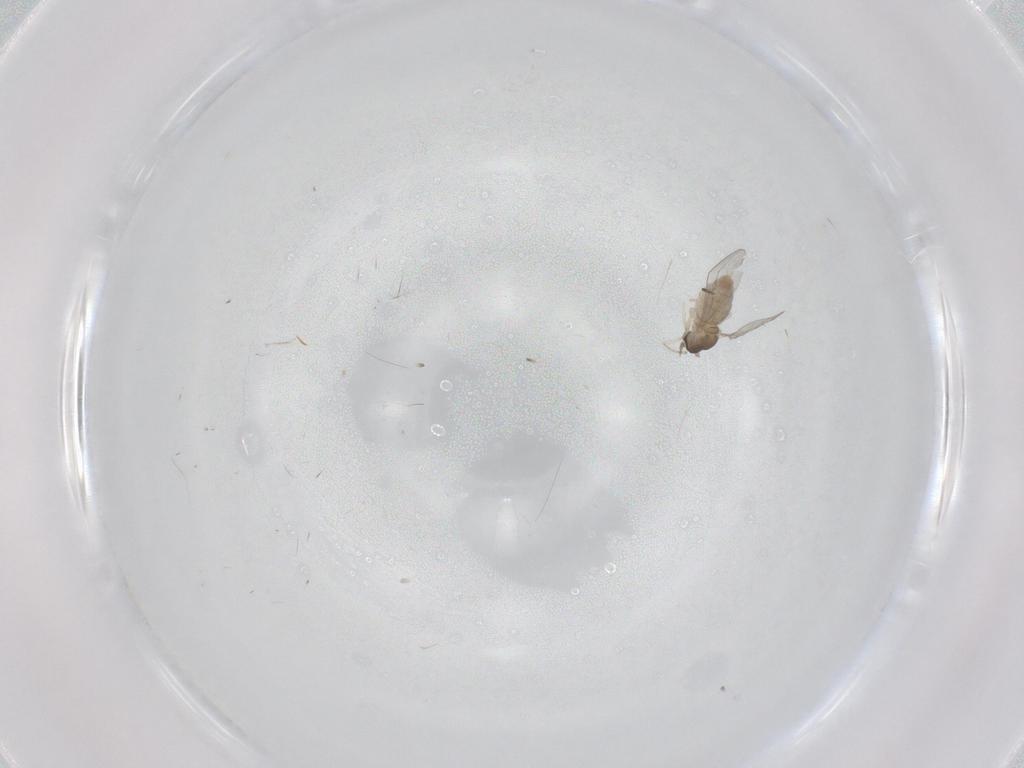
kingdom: Animalia
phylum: Arthropoda
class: Insecta
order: Diptera
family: Cecidomyiidae
